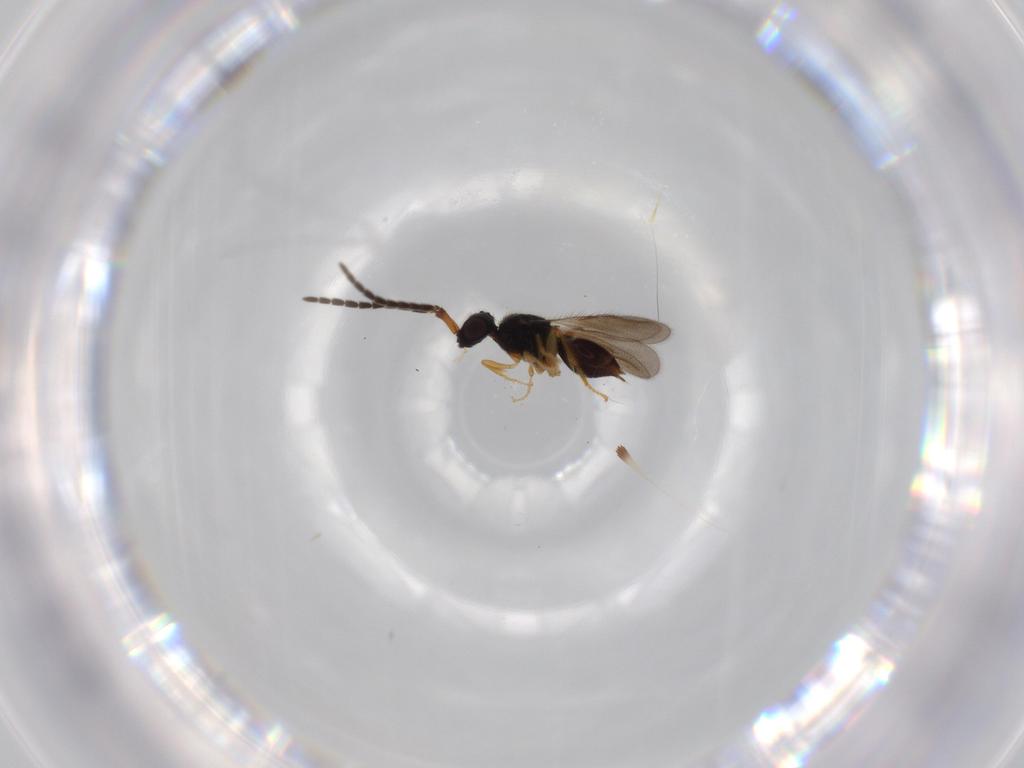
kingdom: Animalia
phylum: Arthropoda
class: Insecta
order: Hymenoptera
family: Ceraphronidae
